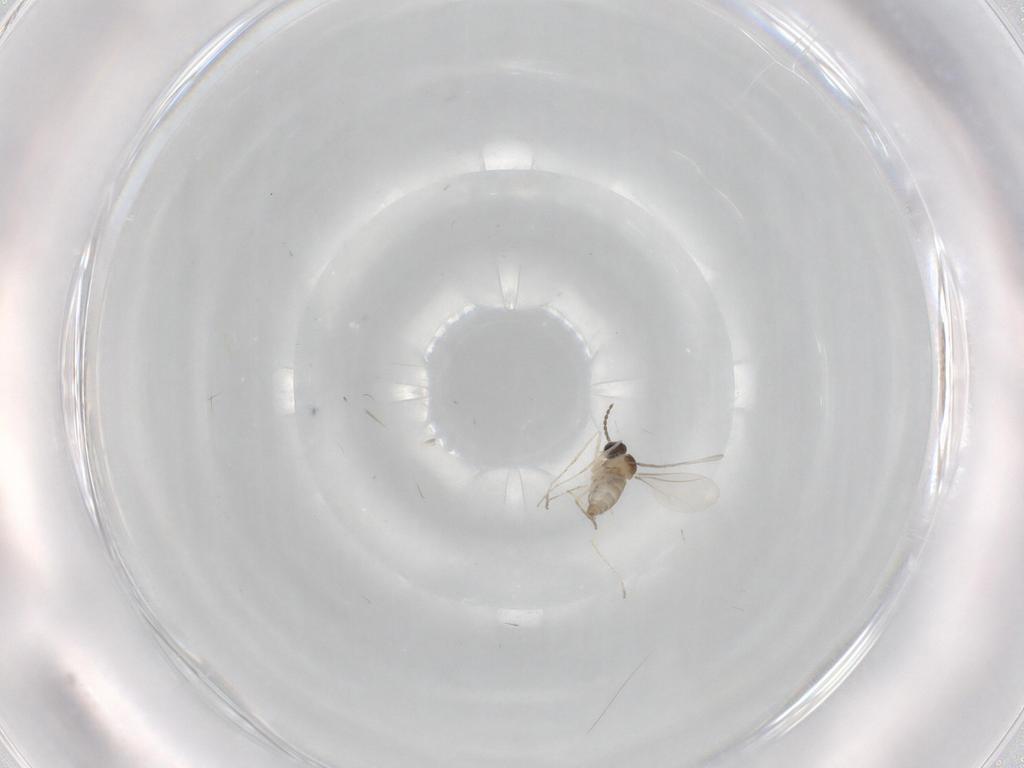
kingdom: Animalia
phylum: Arthropoda
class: Insecta
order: Diptera
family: Cecidomyiidae
